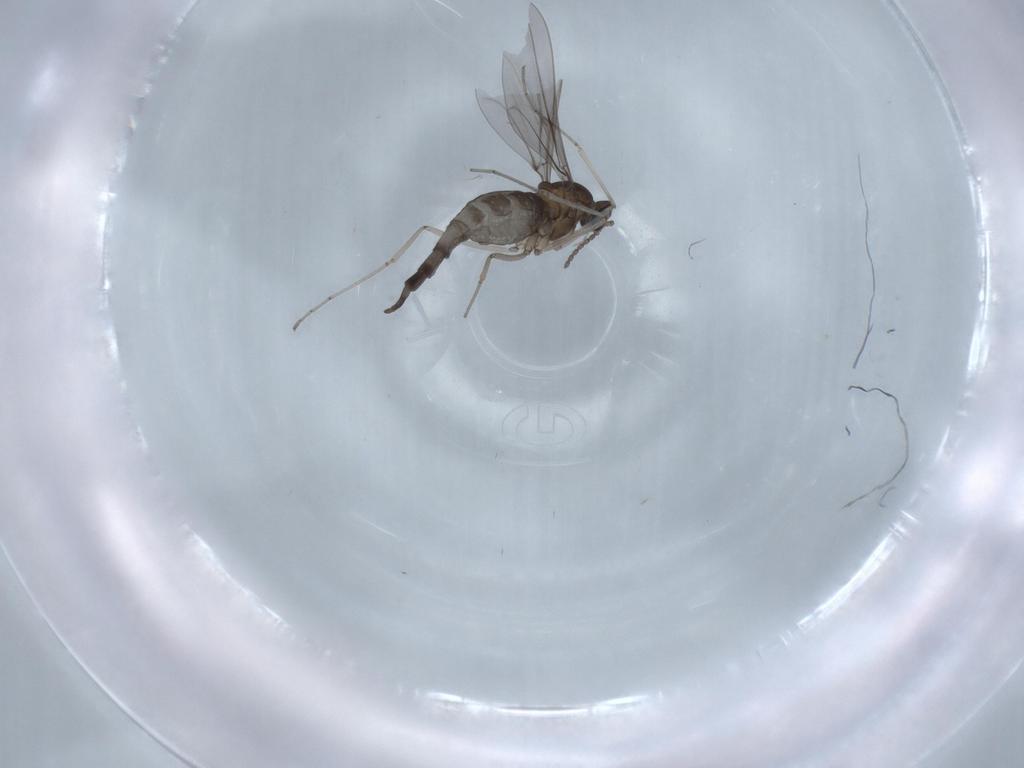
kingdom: Animalia
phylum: Arthropoda
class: Insecta
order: Diptera
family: Cecidomyiidae
